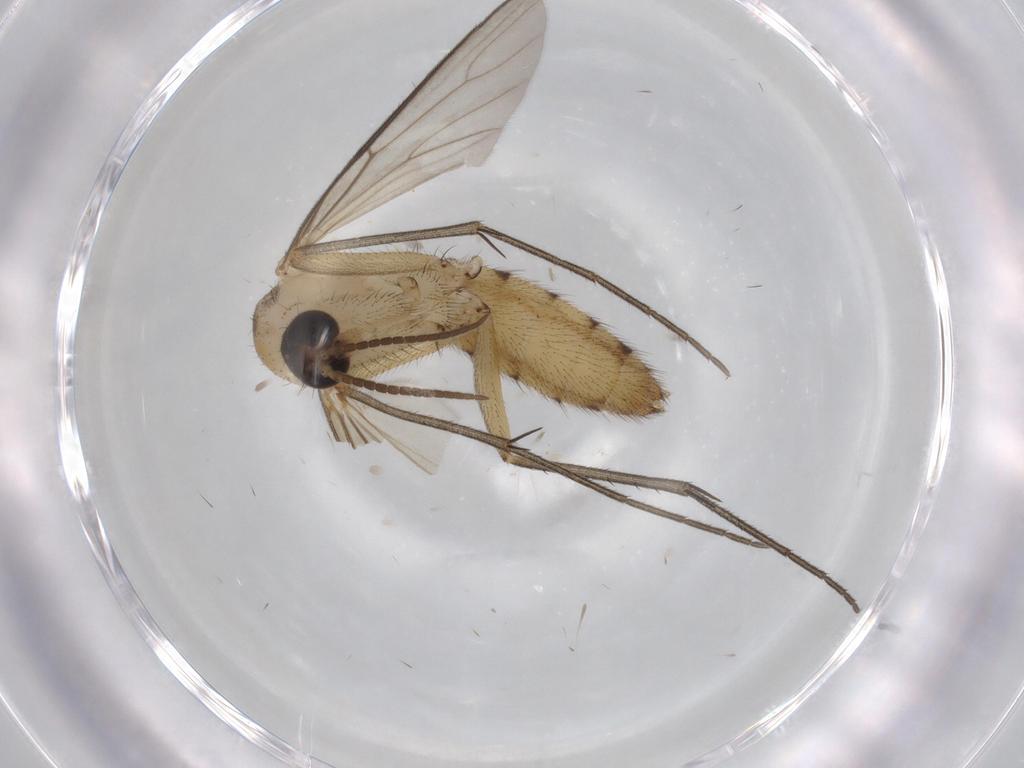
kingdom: Animalia
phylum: Arthropoda
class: Insecta
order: Diptera
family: Mycetophilidae
